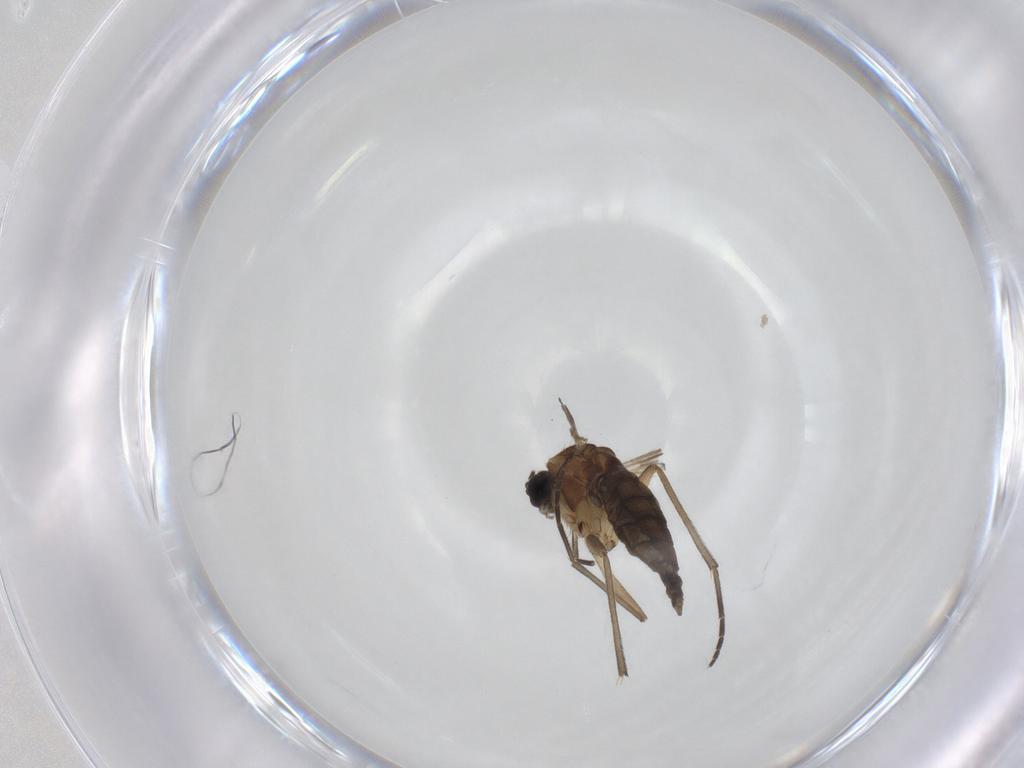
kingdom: Animalia
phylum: Arthropoda
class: Insecta
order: Diptera
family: Sciaridae
